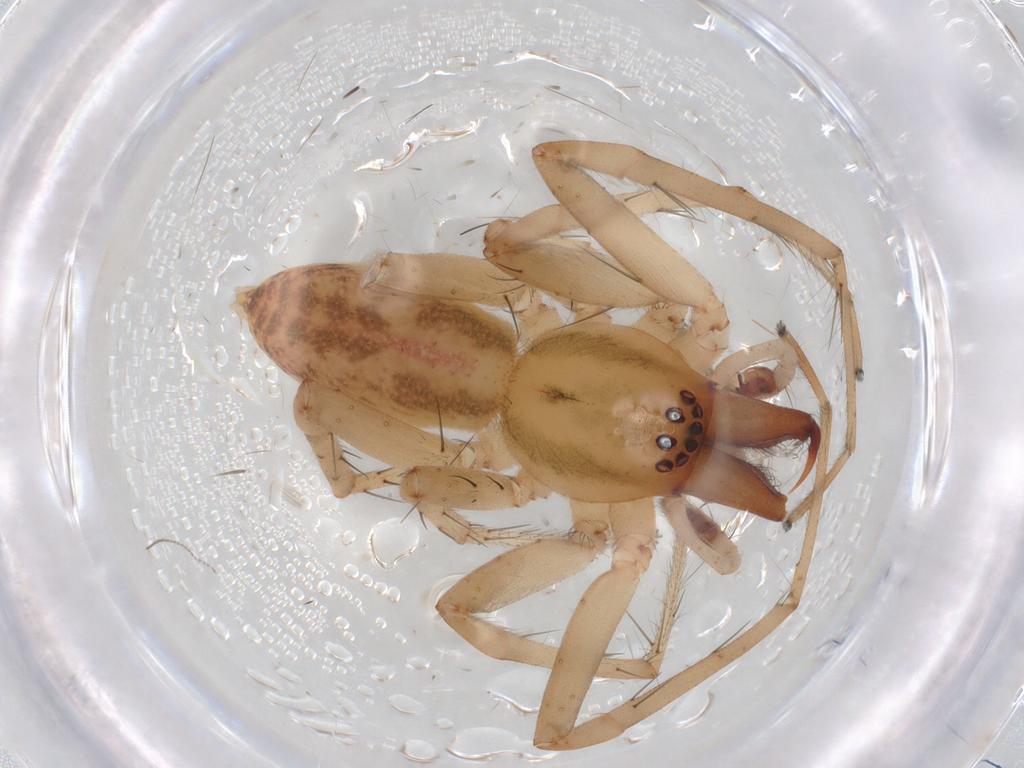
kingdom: Animalia
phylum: Arthropoda
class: Arachnida
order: Araneae
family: Anyphaenidae
